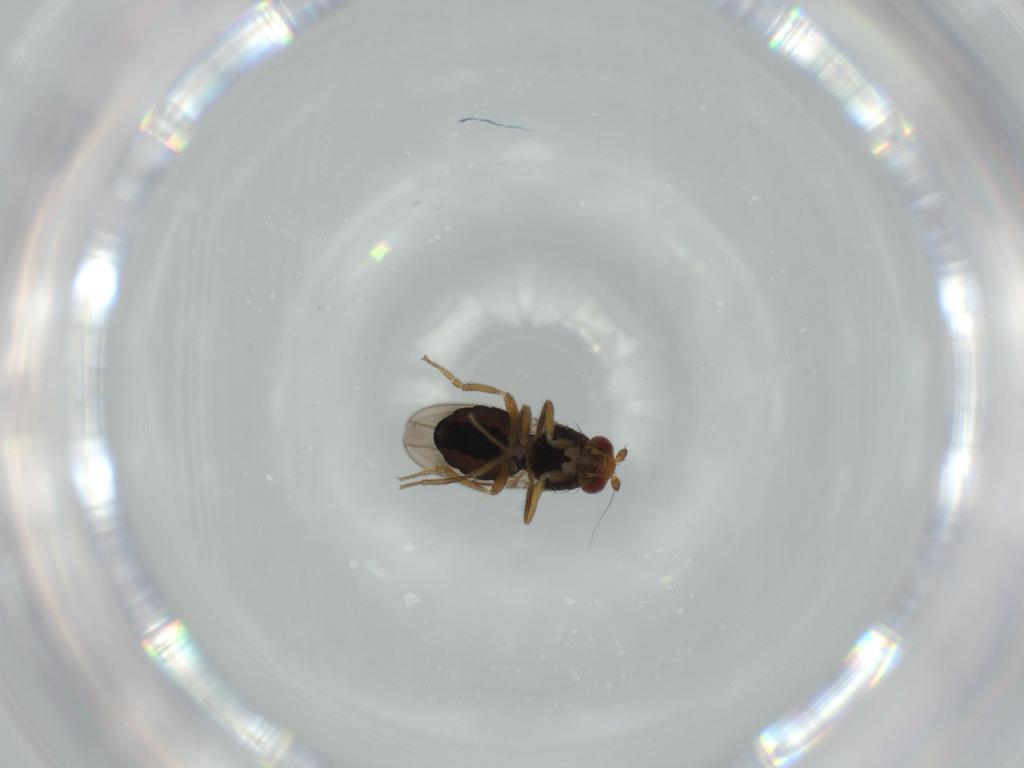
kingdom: Animalia
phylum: Arthropoda
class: Insecta
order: Diptera
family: Sphaeroceridae
